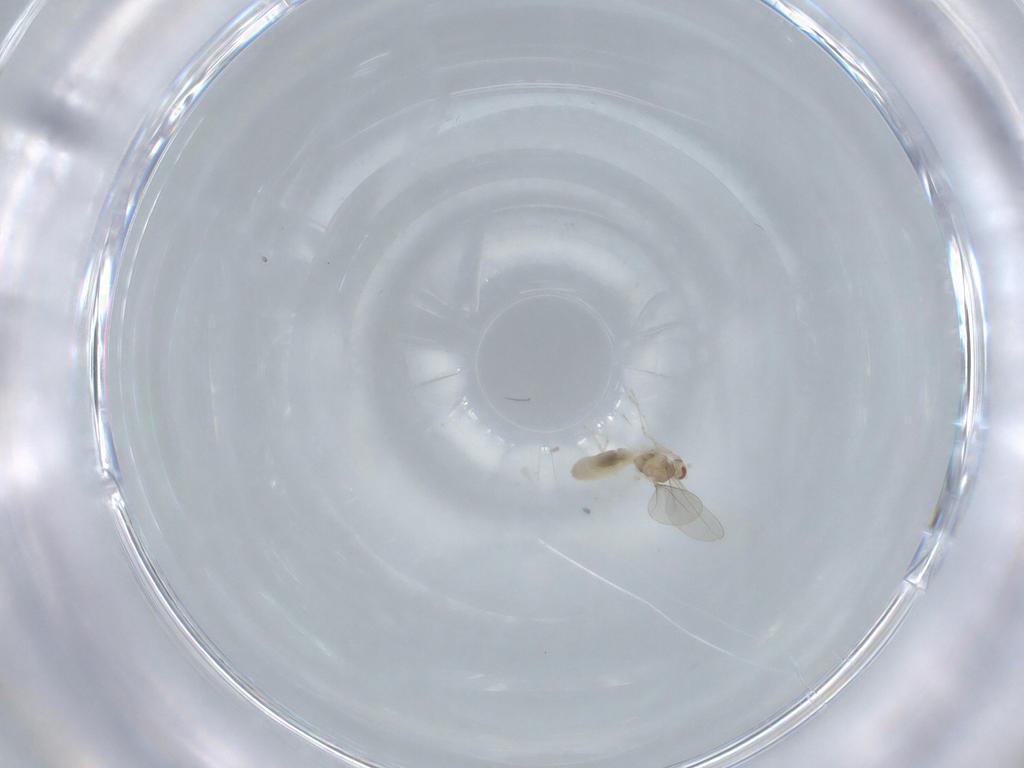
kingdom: Animalia
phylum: Arthropoda
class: Insecta
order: Diptera
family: Cecidomyiidae
